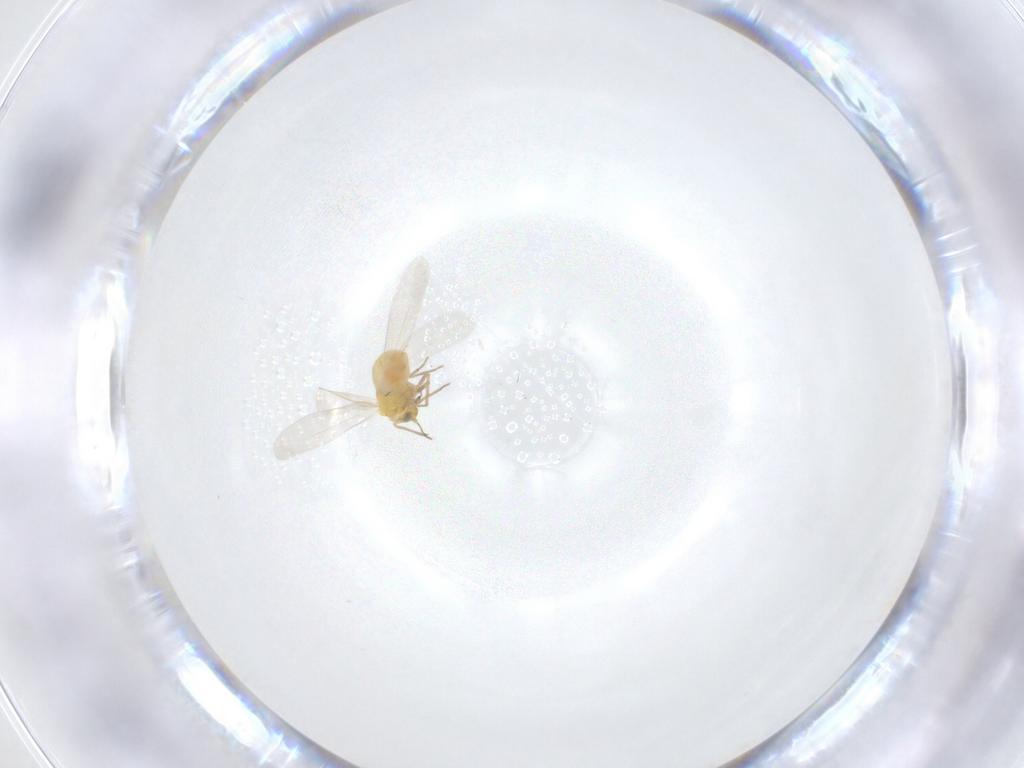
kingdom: Animalia
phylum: Arthropoda
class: Insecta
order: Hemiptera
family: Aleyrodidae
